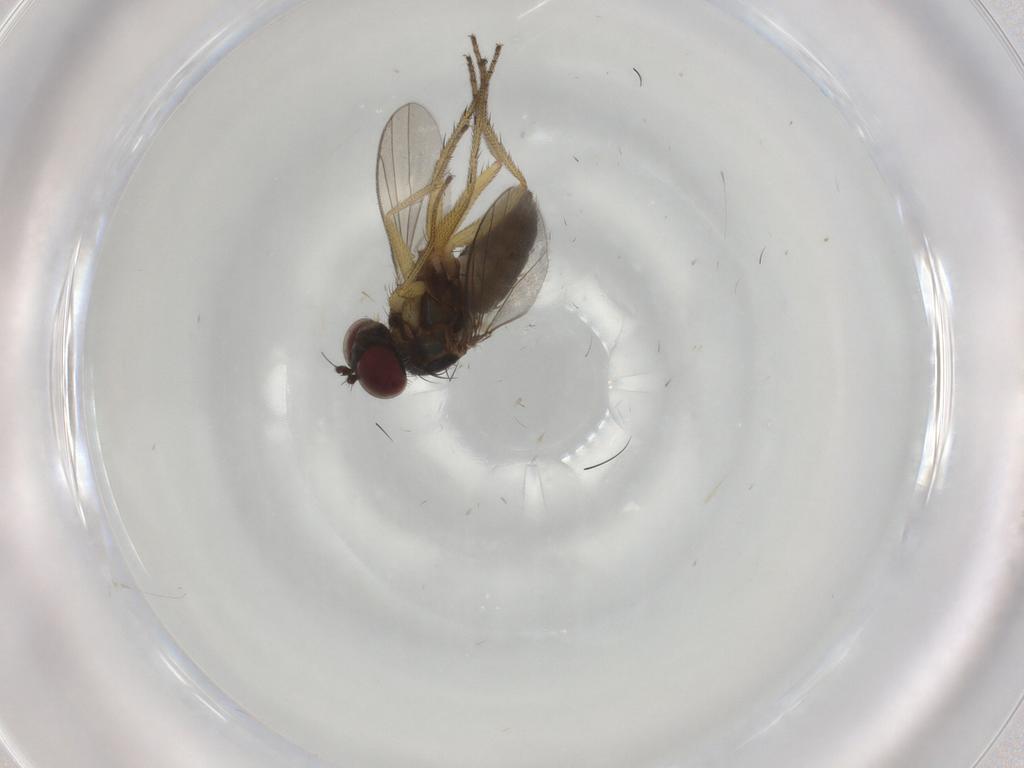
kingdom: Animalia
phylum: Arthropoda
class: Insecta
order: Diptera
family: Dolichopodidae
